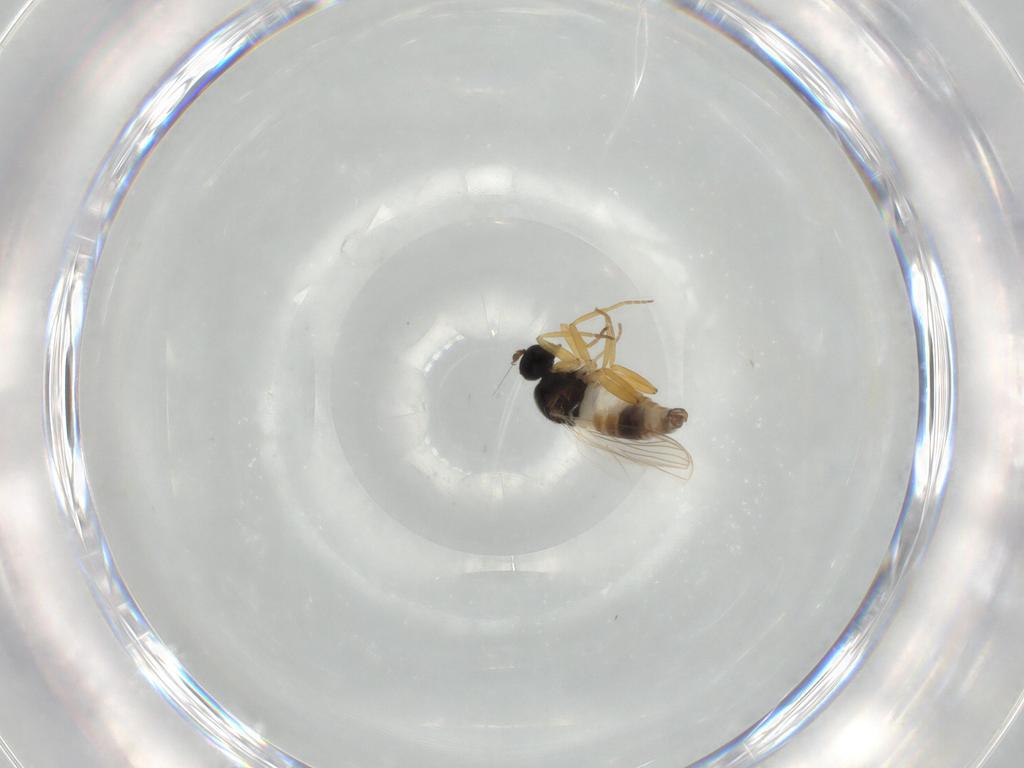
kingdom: Animalia
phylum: Arthropoda
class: Insecta
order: Diptera
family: Hybotidae
